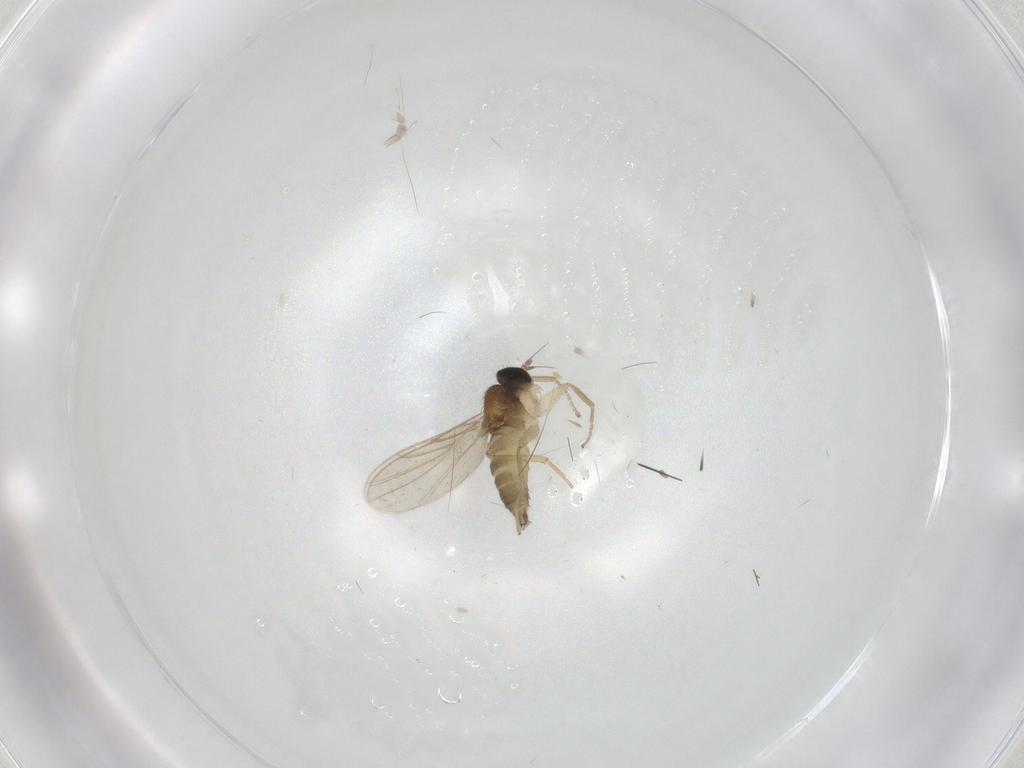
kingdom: Animalia
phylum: Arthropoda
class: Insecta
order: Diptera
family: Hybotidae
